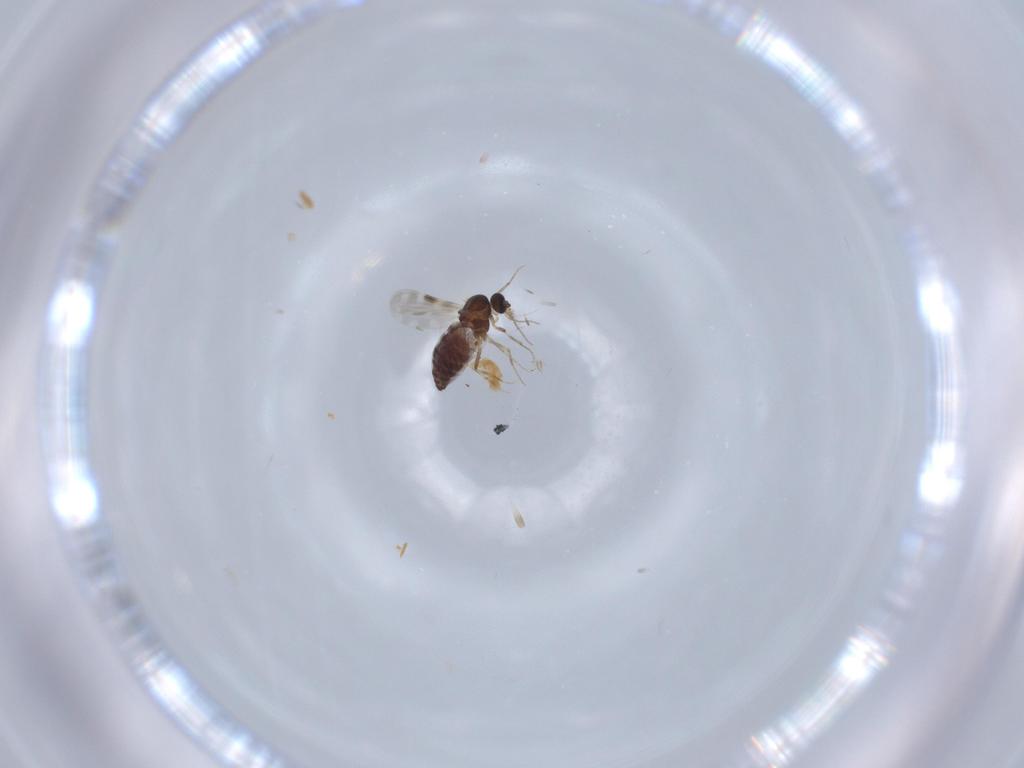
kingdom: Animalia
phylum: Arthropoda
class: Insecta
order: Diptera
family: Ceratopogonidae
